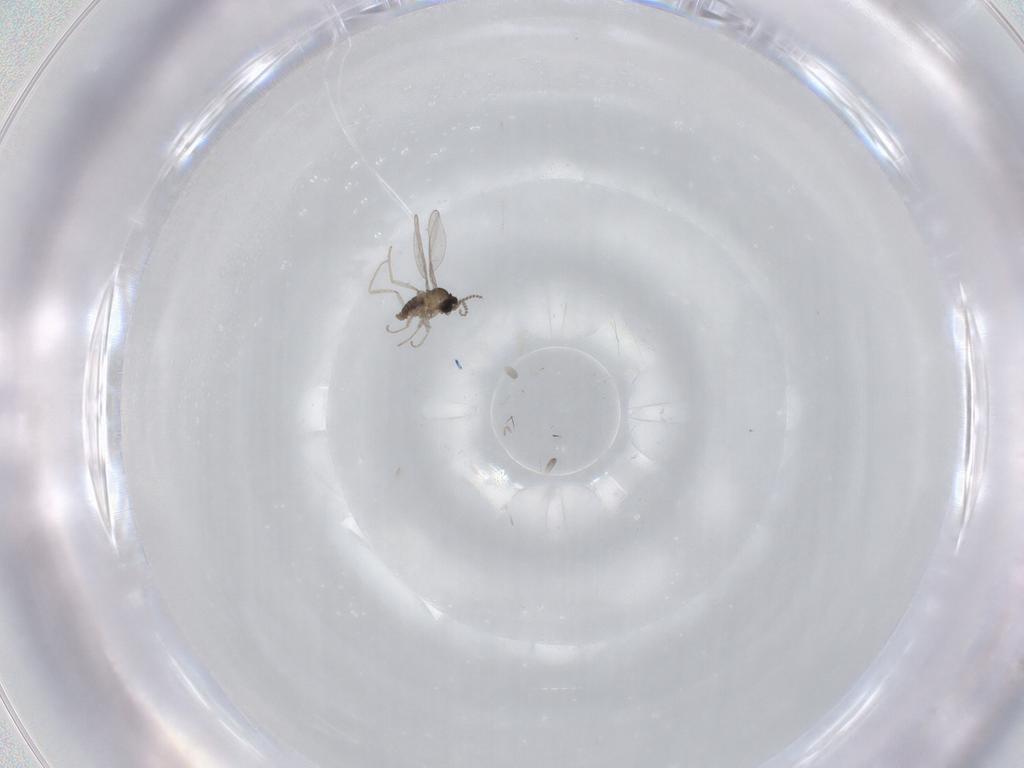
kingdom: Animalia
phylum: Arthropoda
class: Insecta
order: Diptera
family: Cecidomyiidae
